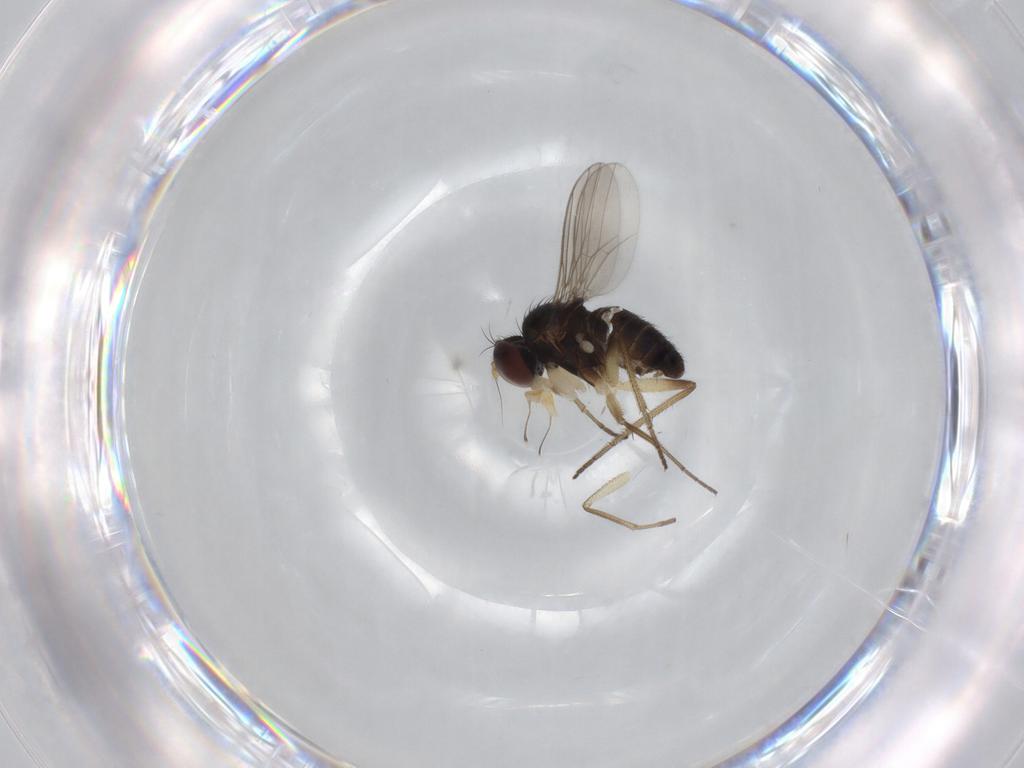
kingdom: Animalia
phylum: Arthropoda
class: Insecta
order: Diptera
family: Dolichopodidae
